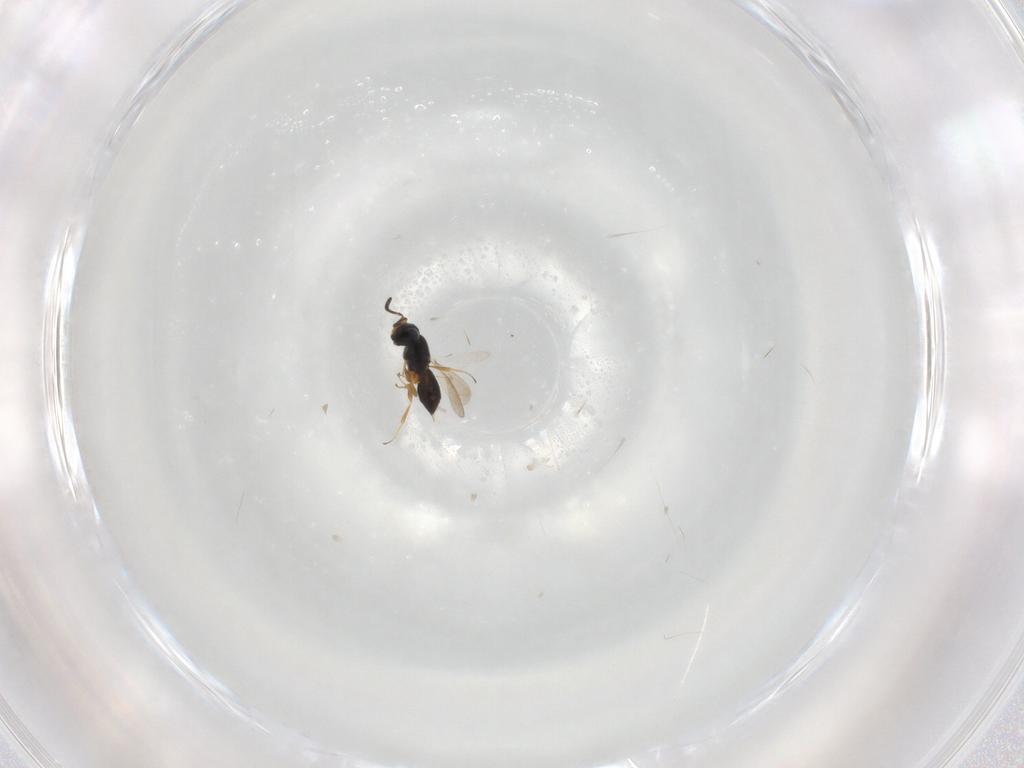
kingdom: Animalia
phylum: Arthropoda
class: Insecta
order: Hymenoptera
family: Scelionidae
